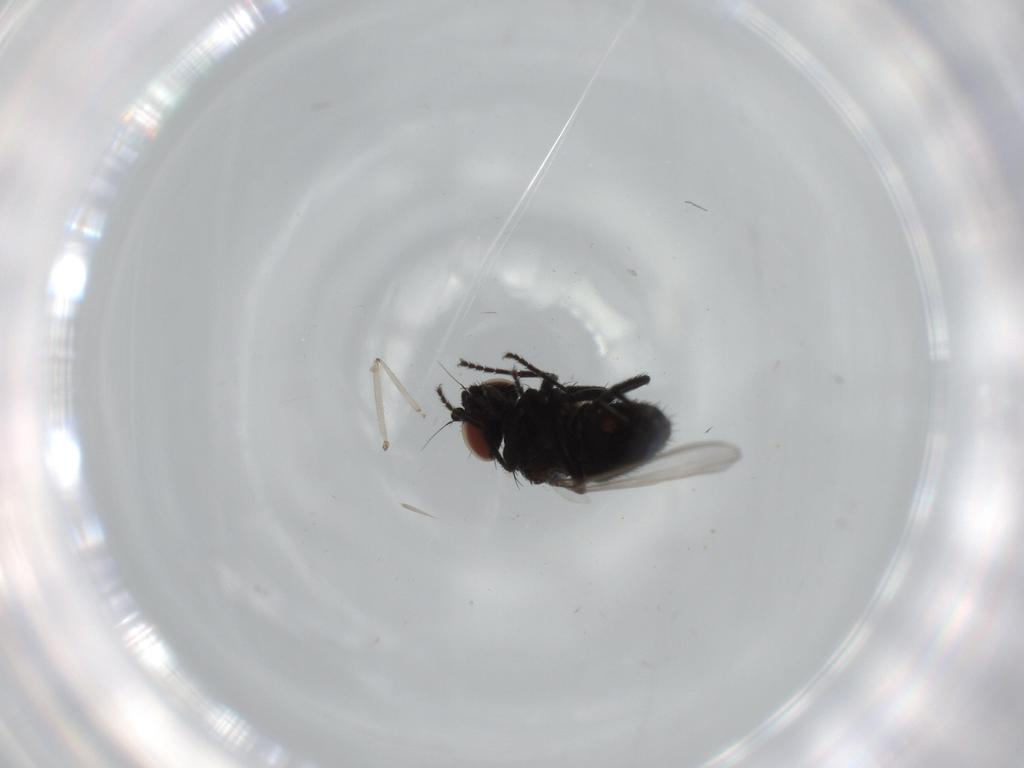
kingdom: Animalia
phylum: Arthropoda
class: Insecta
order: Diptera
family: Milichiidae
